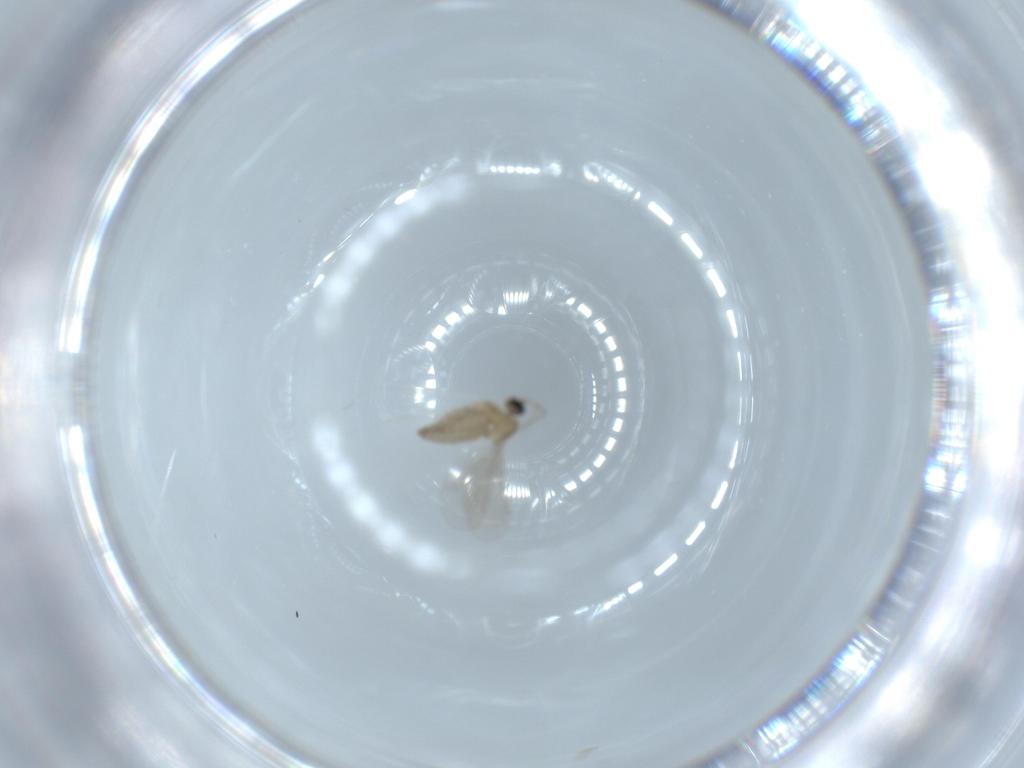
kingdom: Animalia
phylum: Arthropoda
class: Insecta
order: Diptera
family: Cecidomyiidae
